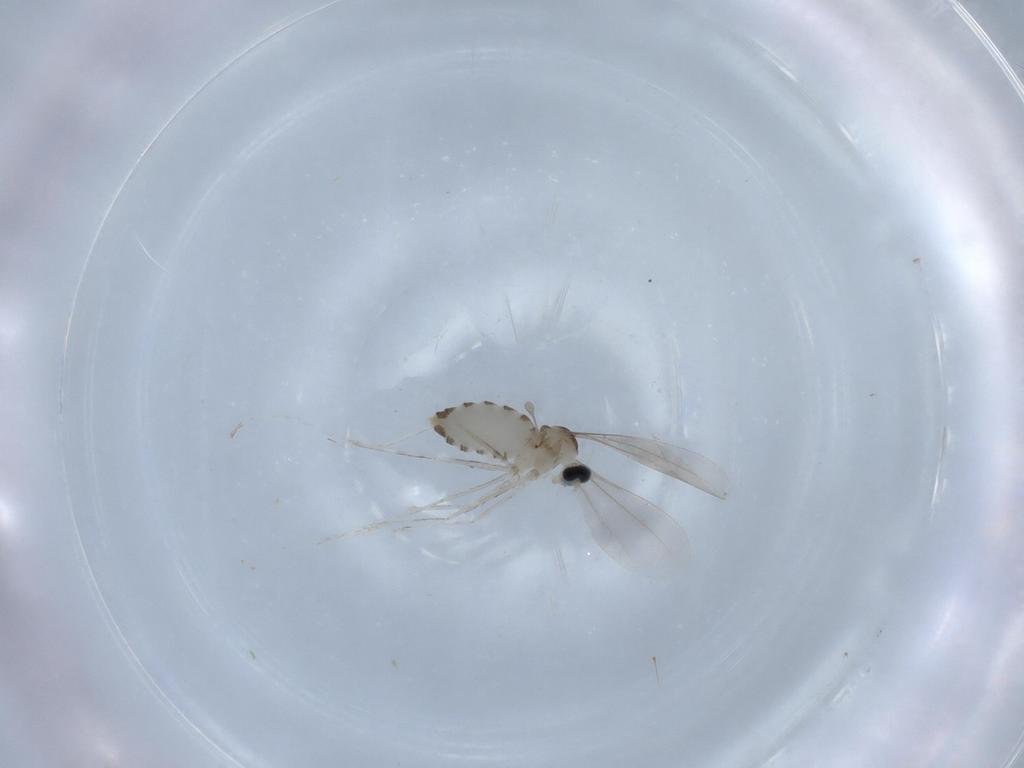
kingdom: Animalia
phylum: Arthropoda
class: Insecta
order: Diptera
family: Psychodidae
